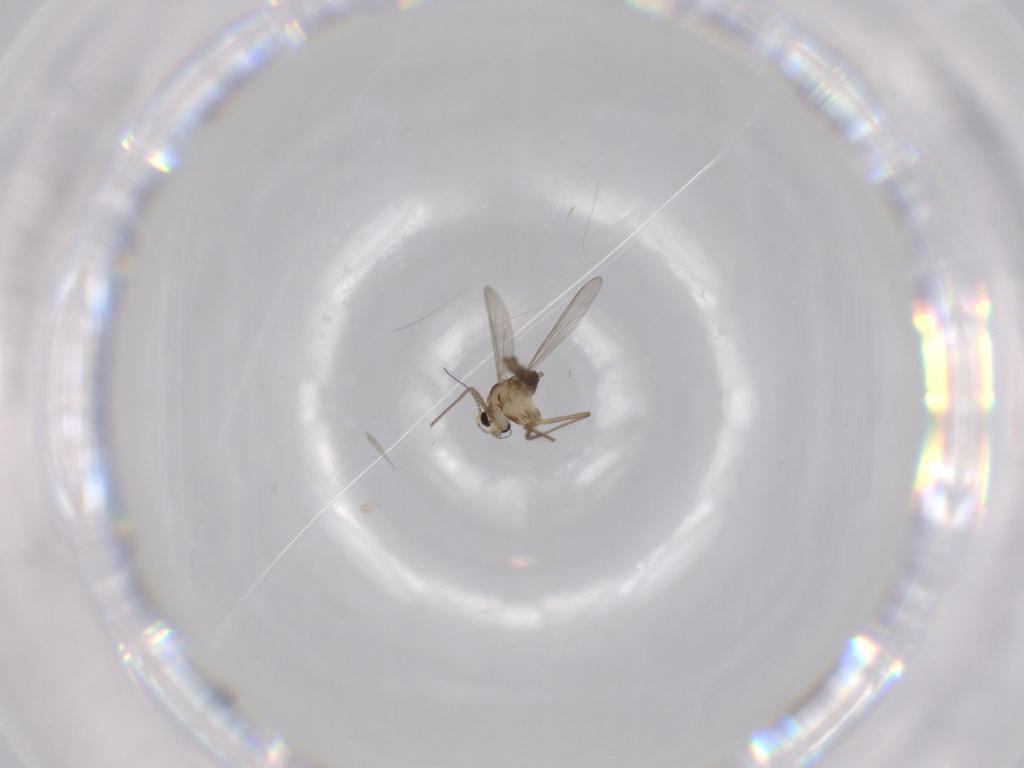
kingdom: Animalia
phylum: Arthropoda
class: Insecta
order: Diptera
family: Chironomidae
